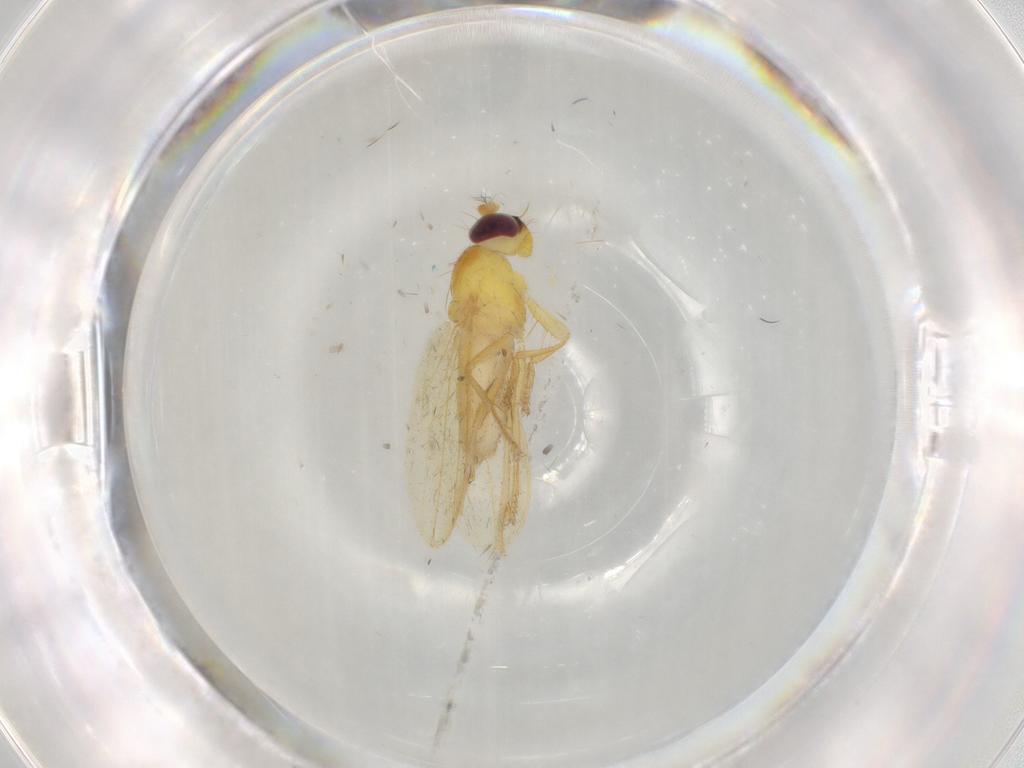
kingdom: Animalia
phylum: Arthropoda
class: Insecta
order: Diptera
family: Periscelididae
